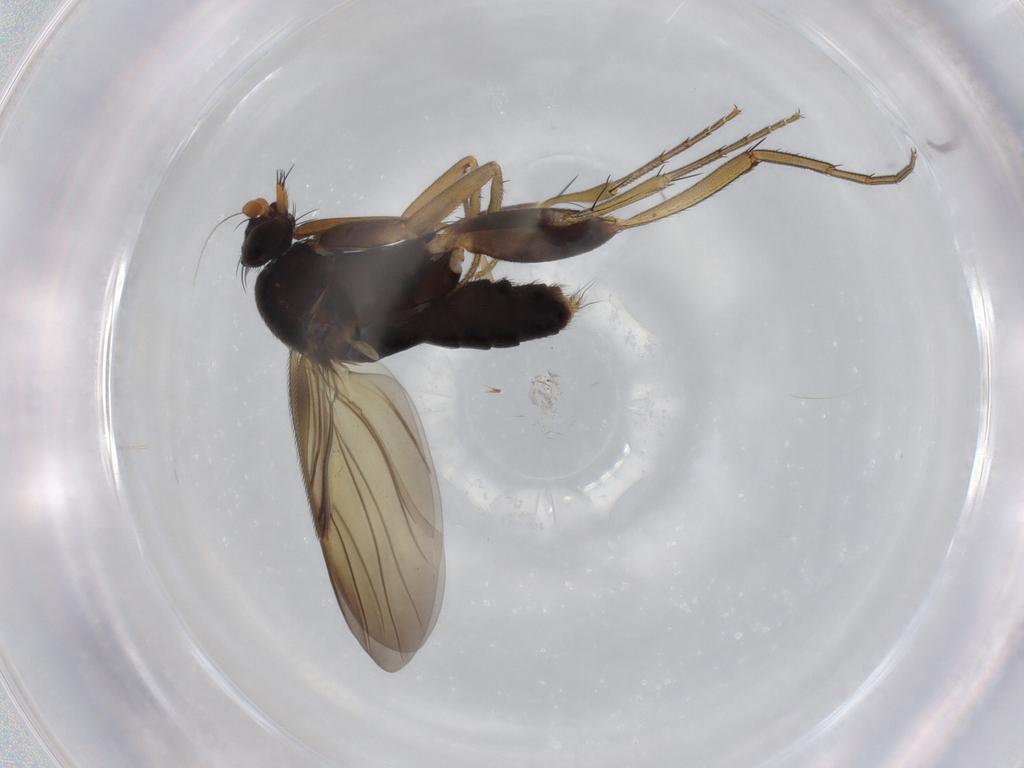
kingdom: Animalia
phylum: Arthropoda
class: Insecta
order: Diptera
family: Phoridae
